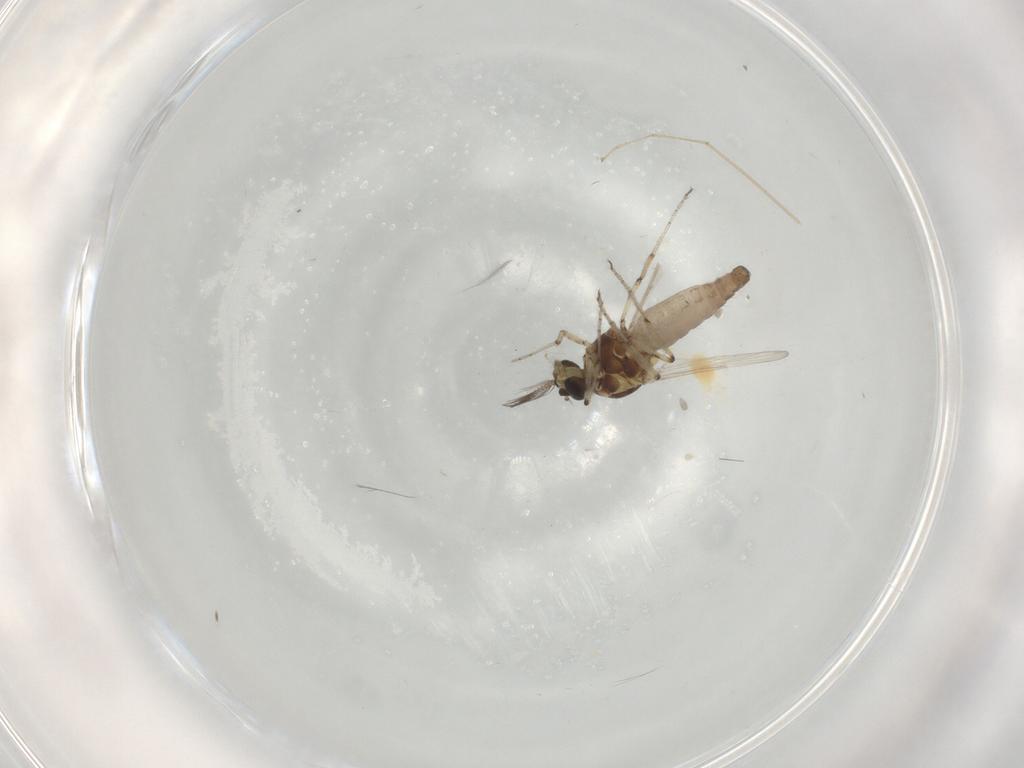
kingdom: Animalia
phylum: Arthropoda
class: Insecta
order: Diptera
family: Ceratopogonidae
